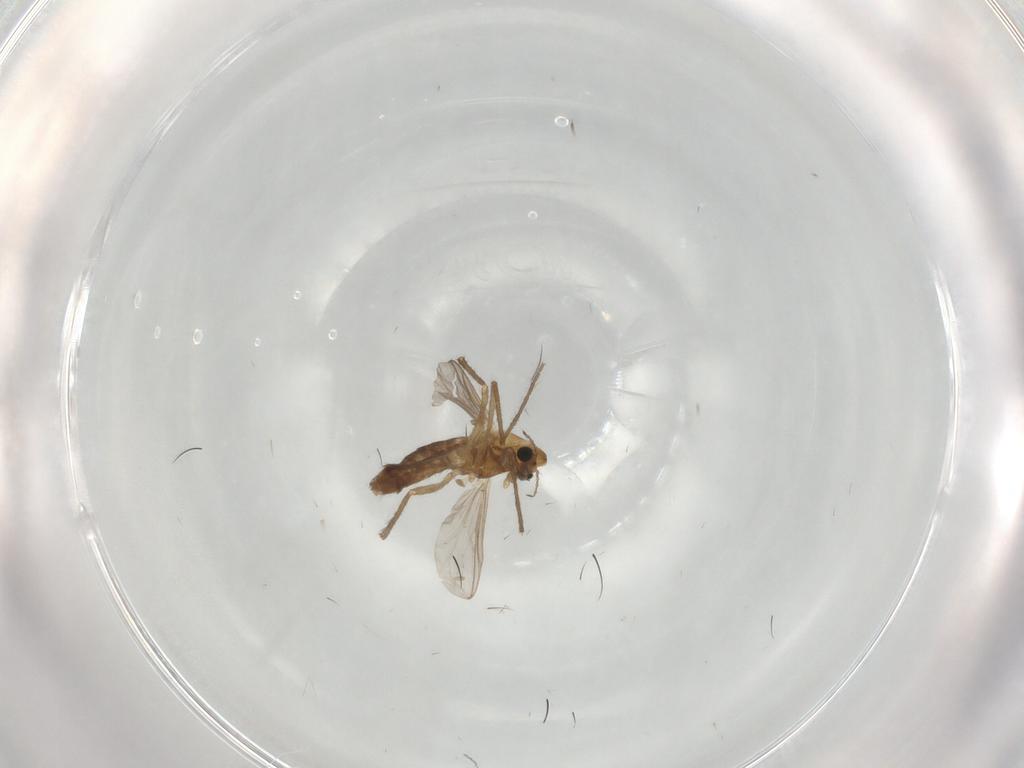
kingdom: Animalia
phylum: Arthropoda
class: Insecta
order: Diptera
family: Chironomidae
